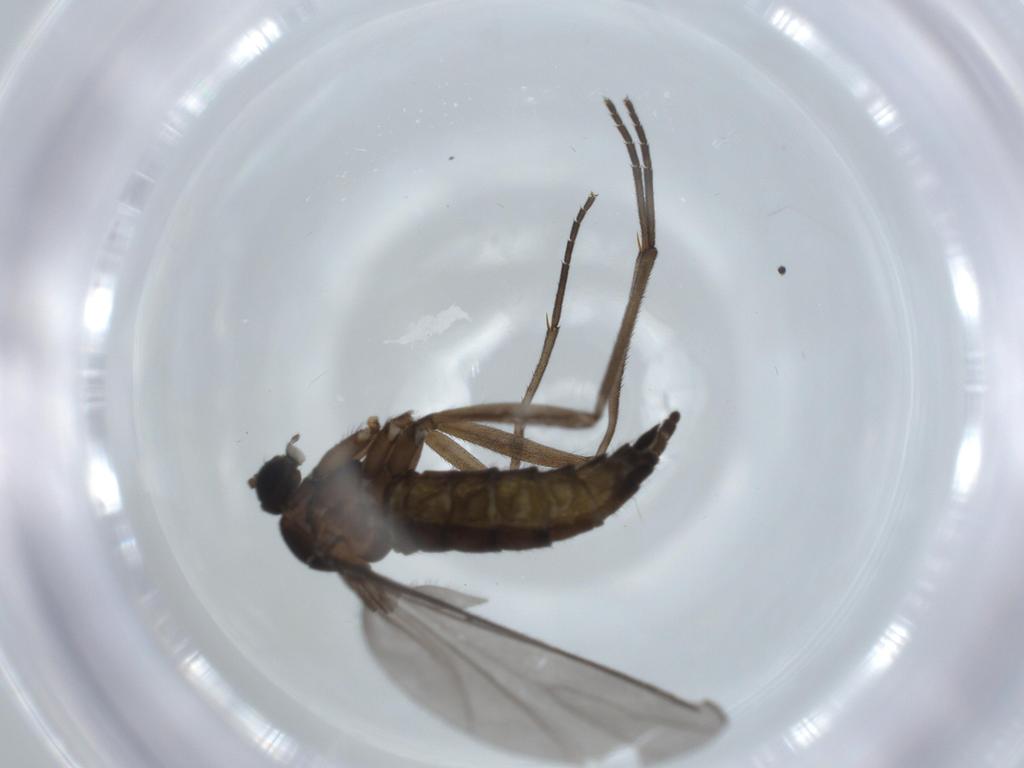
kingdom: Animalia
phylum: Arthropoda
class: Insecta
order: Diptera
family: Sciaridae
